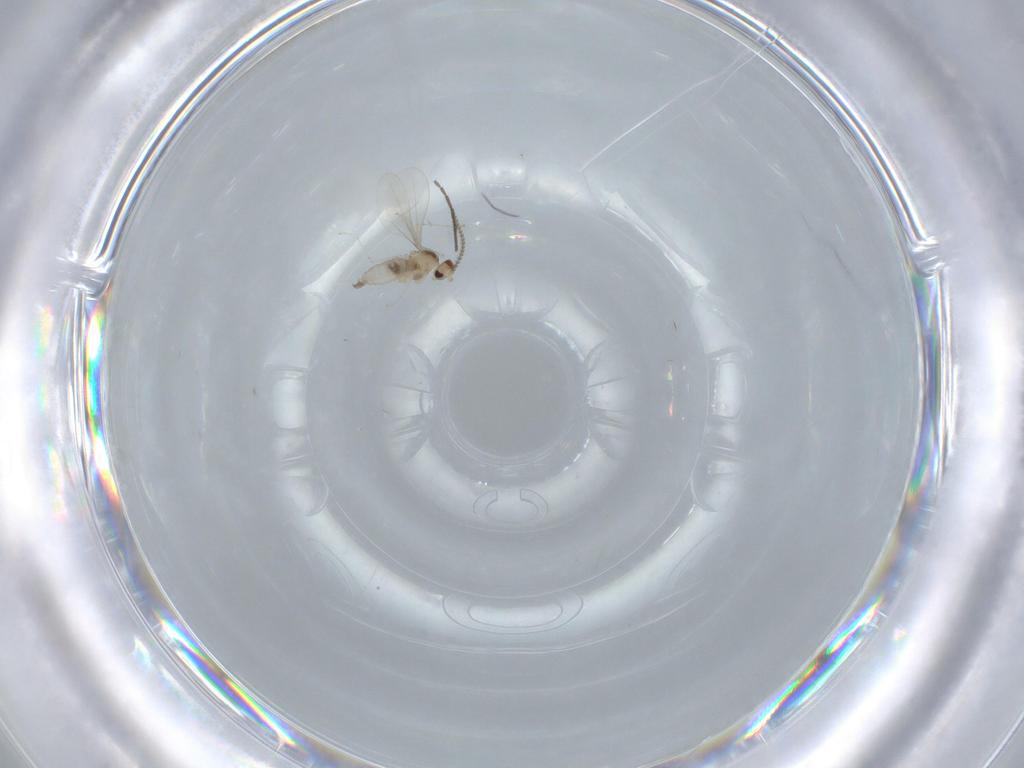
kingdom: Animalia
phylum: Arthropoda
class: Insecta
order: Diptera
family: Cecidomyiidae
